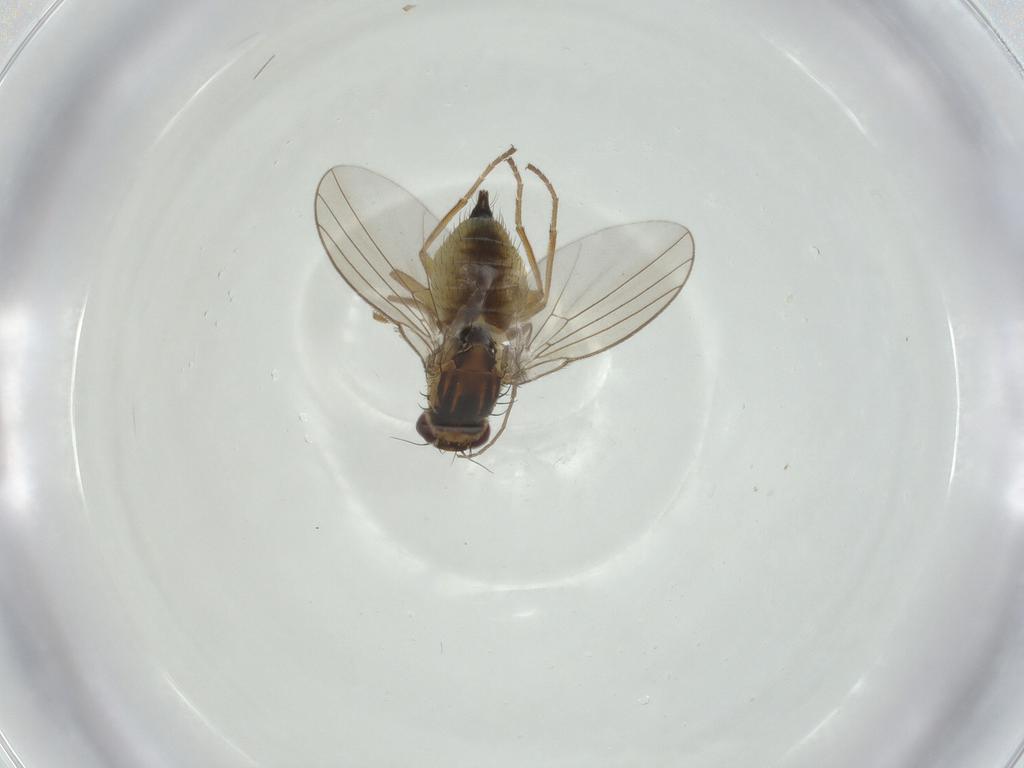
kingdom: Animalia
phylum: Arthropoda
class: Insecta
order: Diptera
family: Agromyzidae
